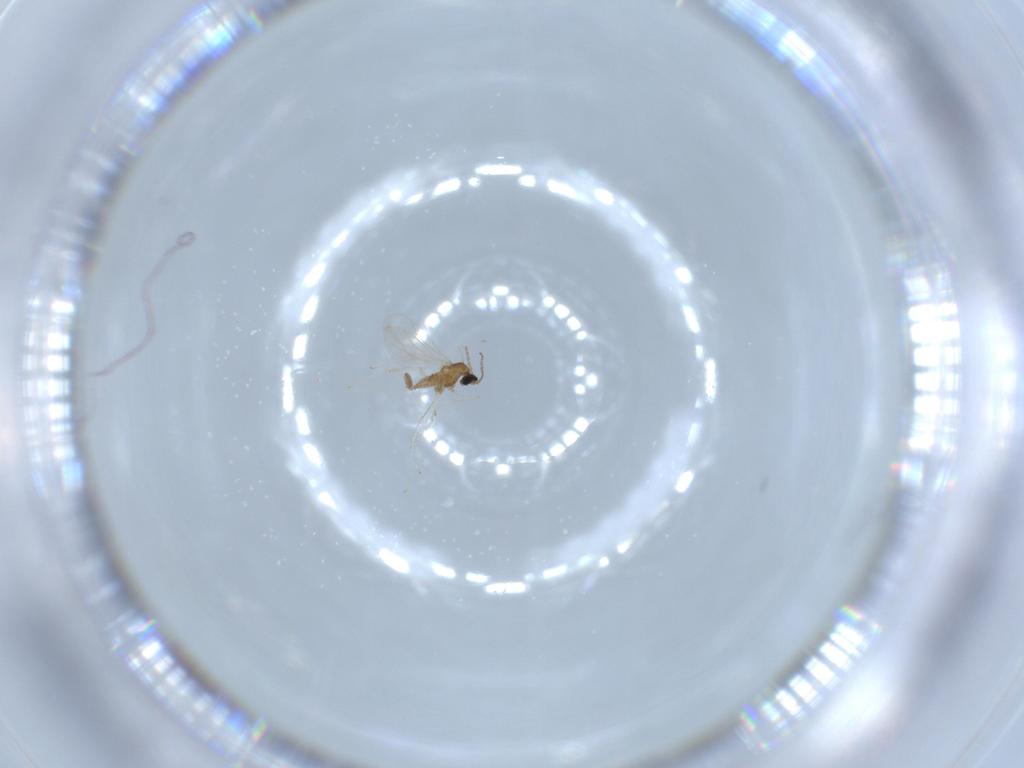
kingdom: Animalia
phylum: Arthropoda
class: Insecta
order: Diptera
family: Cecidomyiidae
